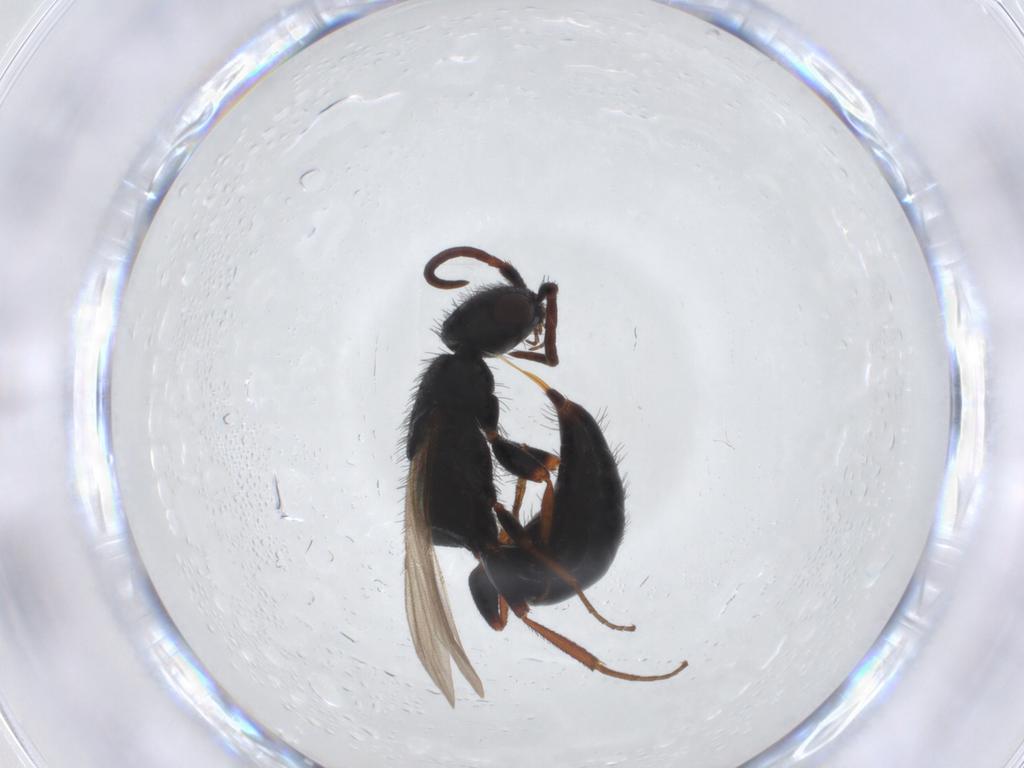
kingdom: Animalia
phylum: Arthropoda
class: Insecta
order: Hymenoptera
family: Bethylidae
